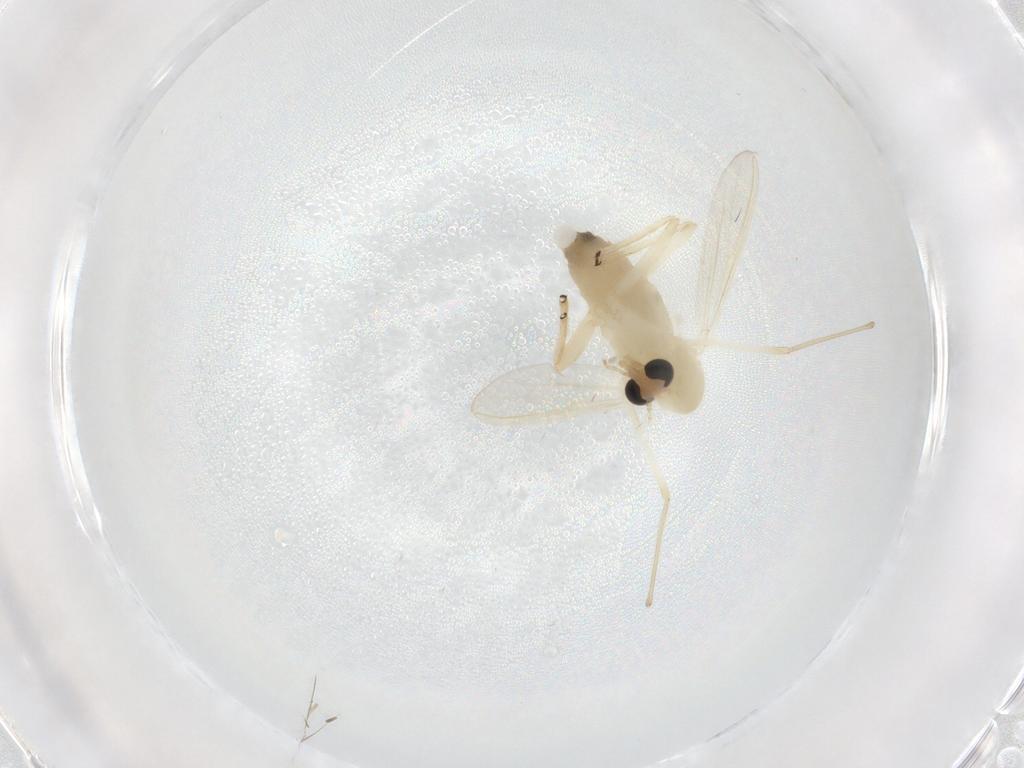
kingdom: Animalia
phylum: Arthropoda
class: Insecta
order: Diptera
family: Chironomidae
